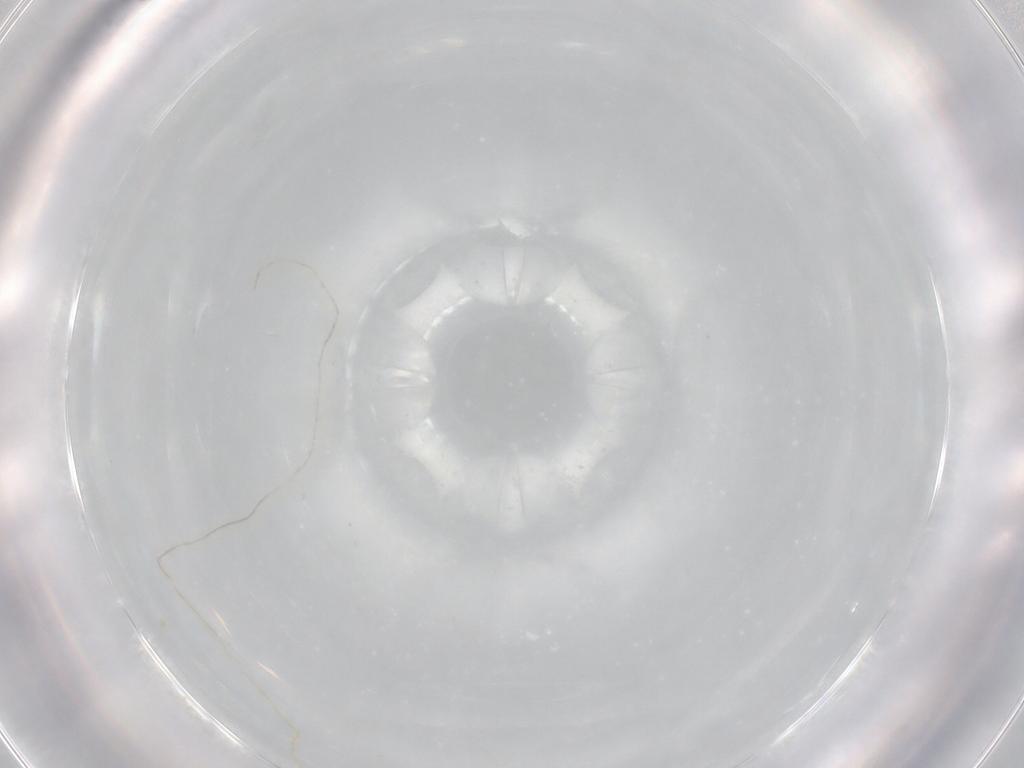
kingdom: Animalia
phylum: Arthropoda
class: Insecta
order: Diptera
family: Cecidomyiidae
